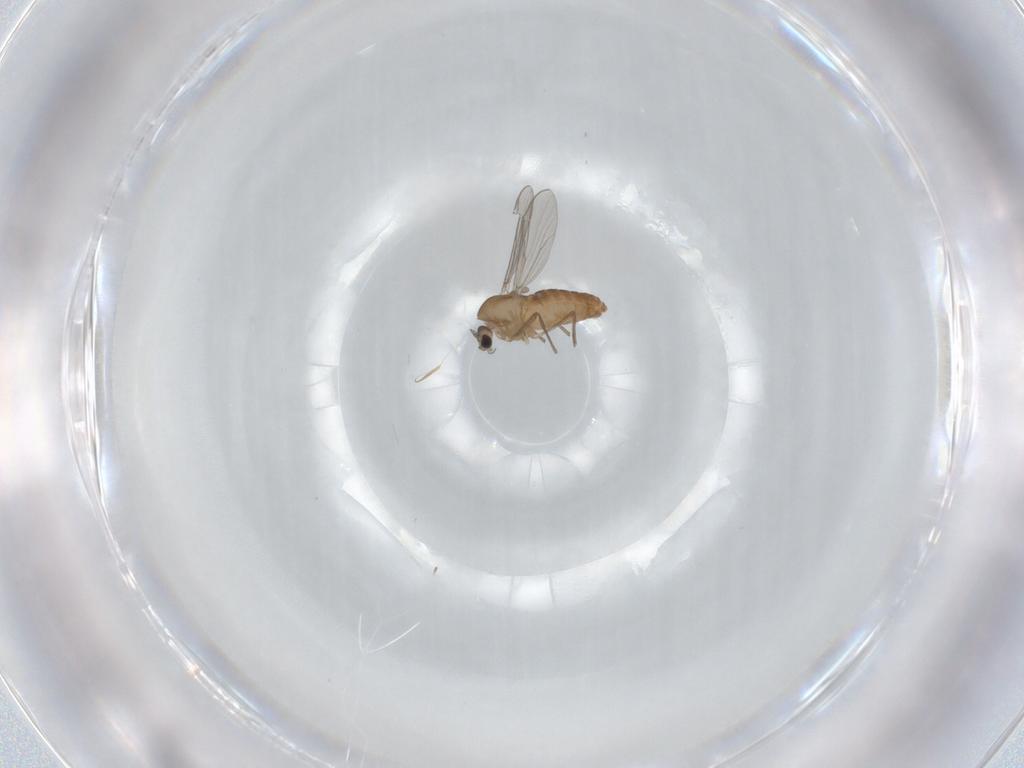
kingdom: Animalia
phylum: Arthropoda
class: Insecta
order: Diptera
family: Chironomidae
